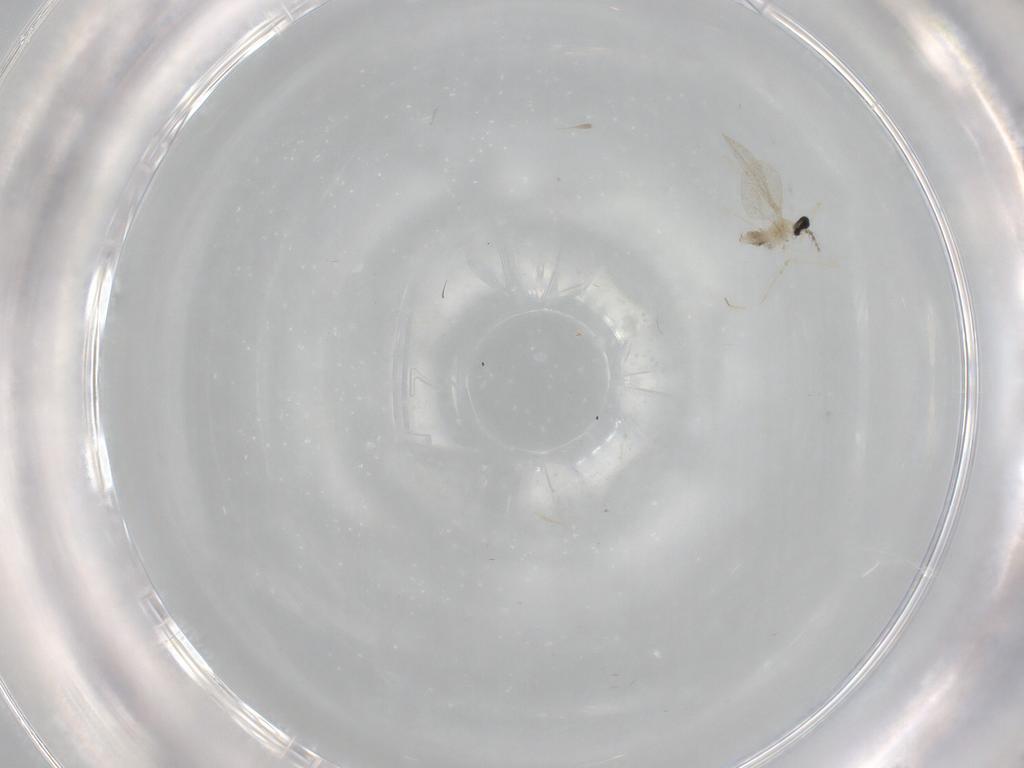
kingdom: Animalia
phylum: Arthropoda
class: Insecta
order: Diptera
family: Cecidomyiidae
